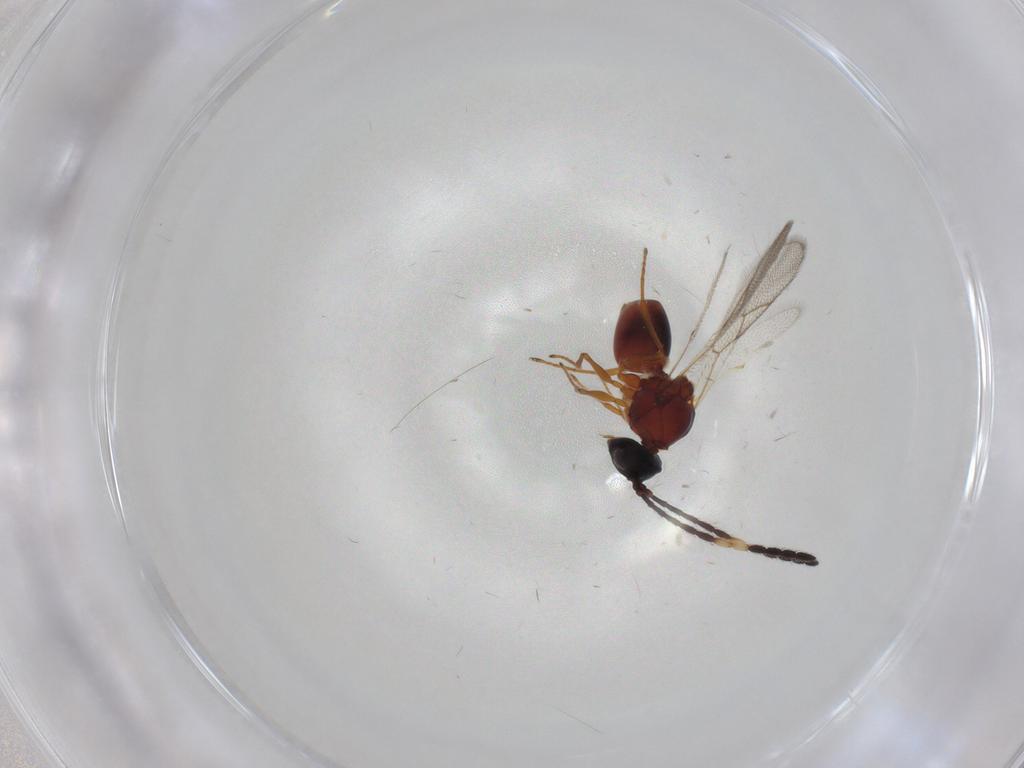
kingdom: Animalia
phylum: Arthropoda
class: Insecta
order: Hymenoptera
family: Figitidae
